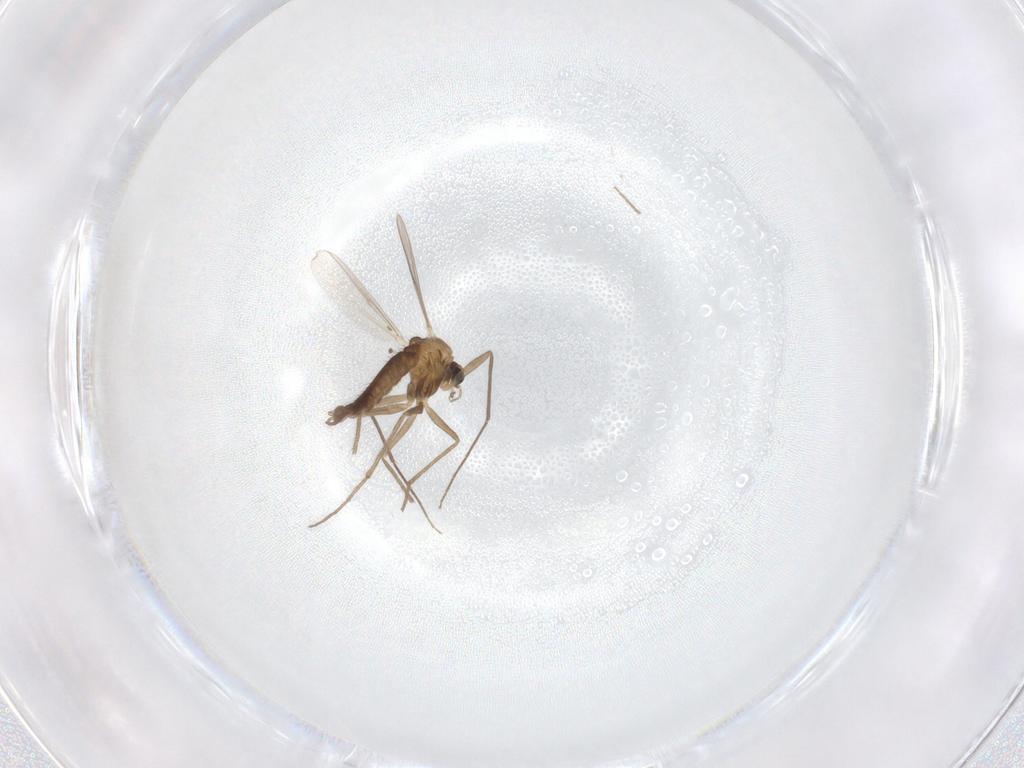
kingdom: Animalia
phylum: Arthropoda
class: Insecta
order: Diptera
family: Chironomidae
